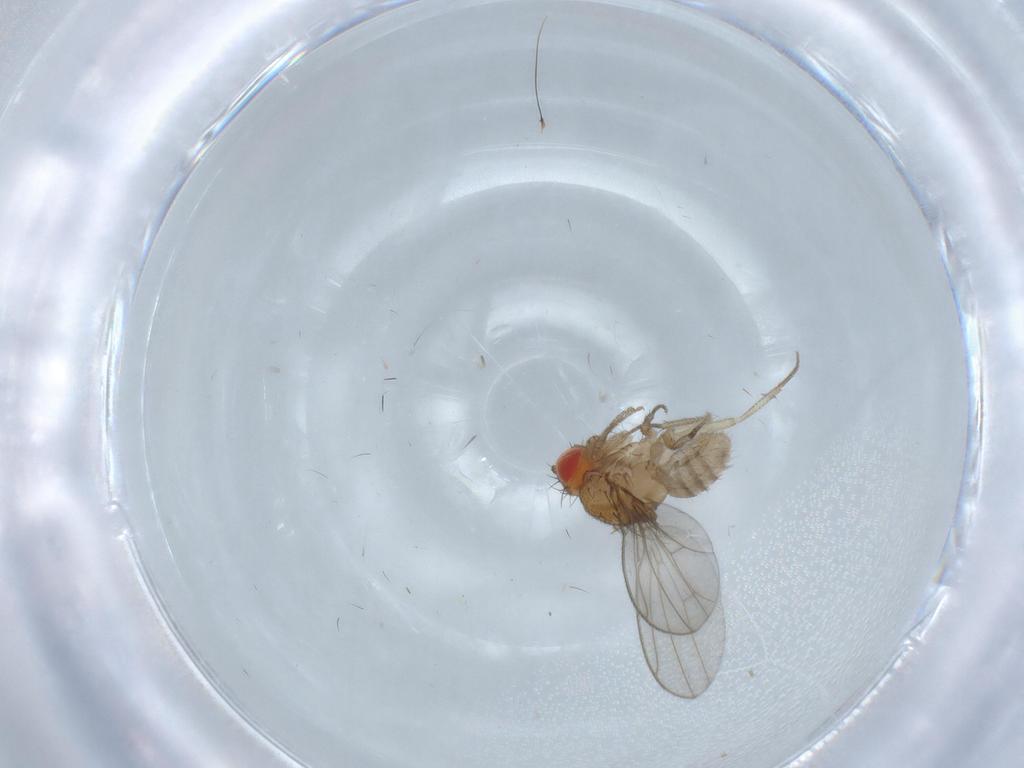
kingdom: Animalia
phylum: Arthropoda
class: Insecta
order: Diptera
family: Drosophilidae
